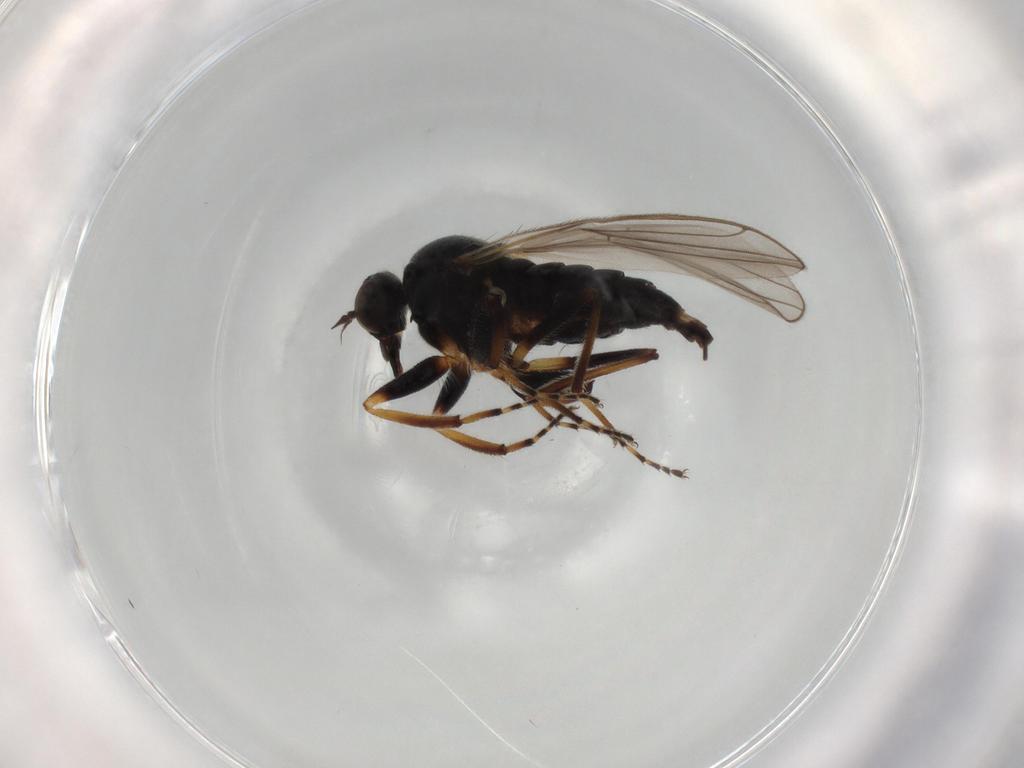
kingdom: Animalia
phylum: Arthropoda
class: Insecta
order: Diptera
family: Hybotidae
